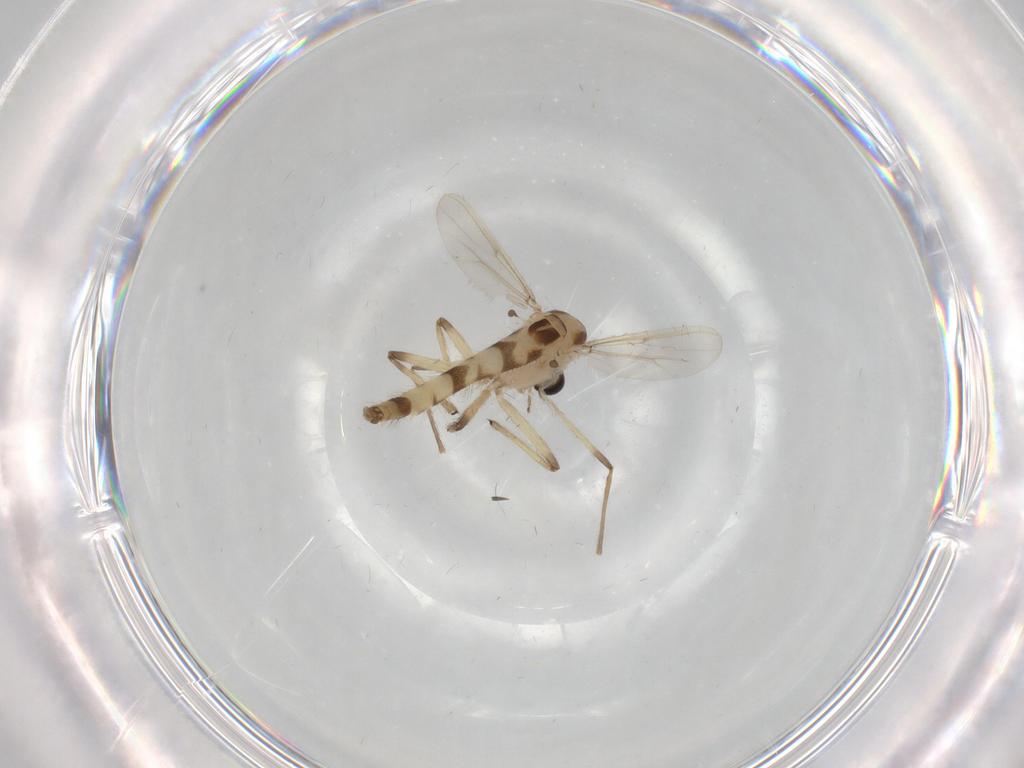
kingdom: Animalia
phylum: Arthropoda
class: Insecta
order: Diptera
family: Chironomidae
